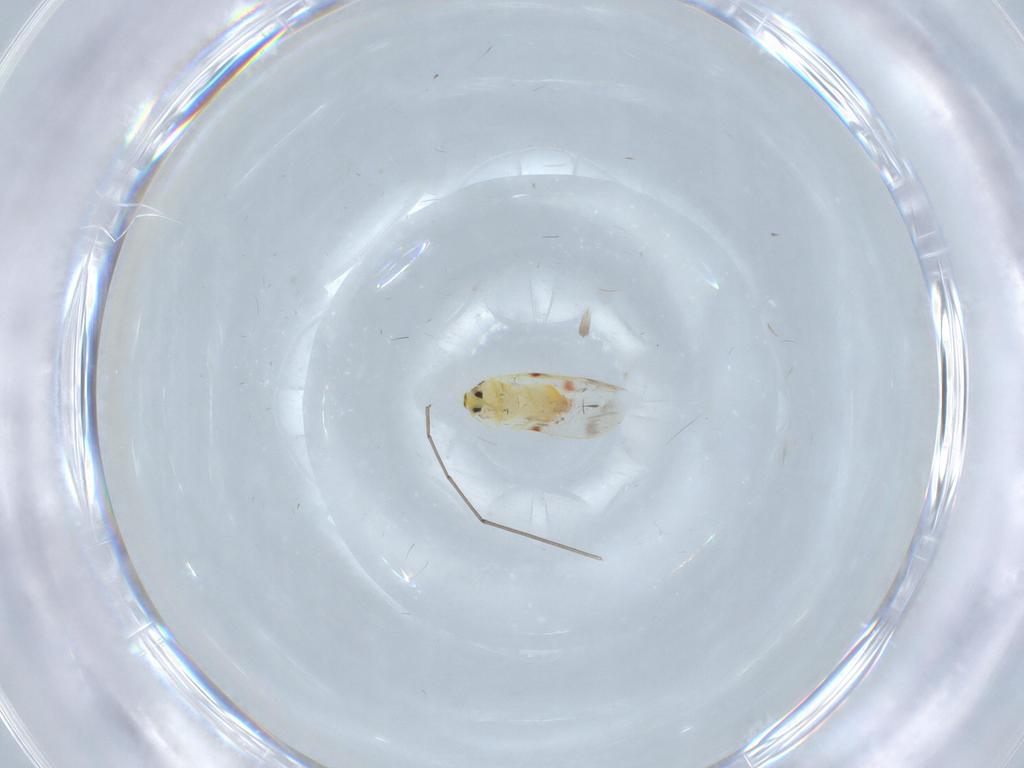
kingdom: Animalia
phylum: Arthropoda
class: Insecta
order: Hemiptera
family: Aleyrodidae
